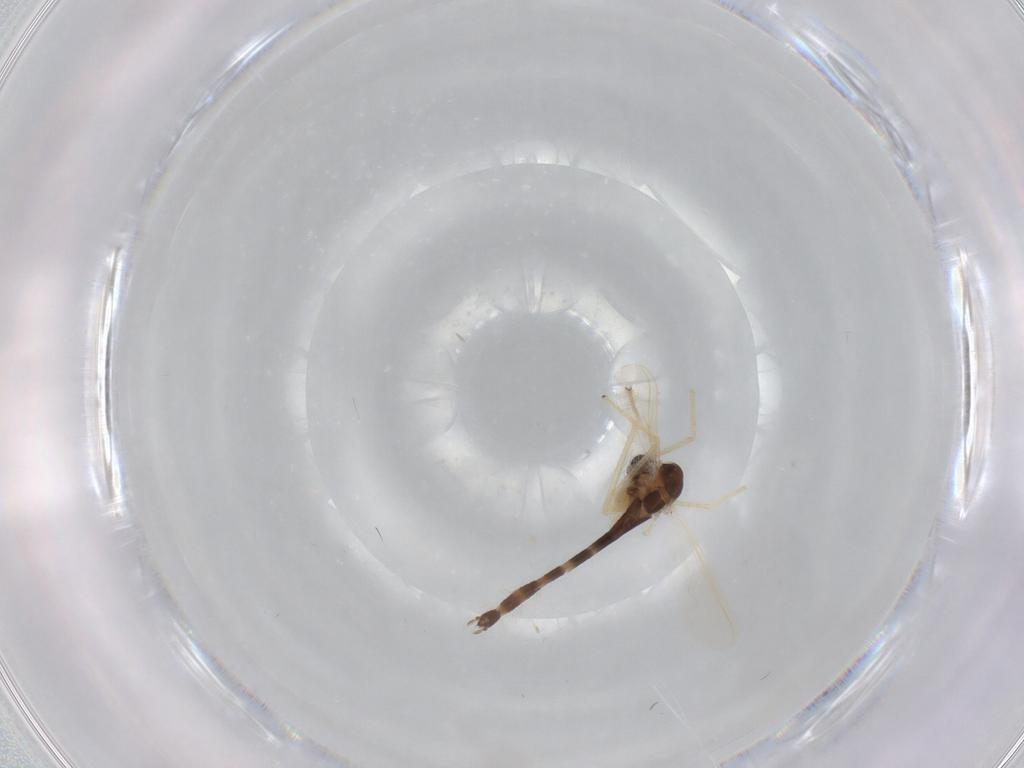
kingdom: Animalia
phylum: Arthropoda
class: Insecta
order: Diptera
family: Chironomidae
